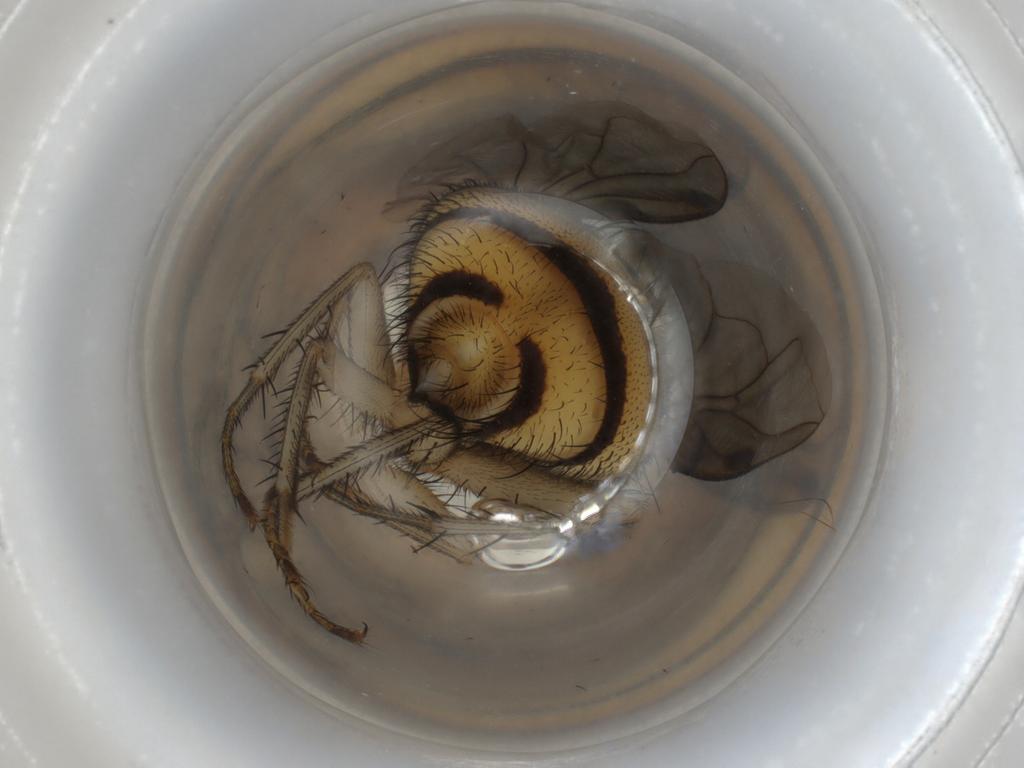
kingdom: Animalia
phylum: Arthropoda
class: Insecta
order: Diptera
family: Calliphoridae
